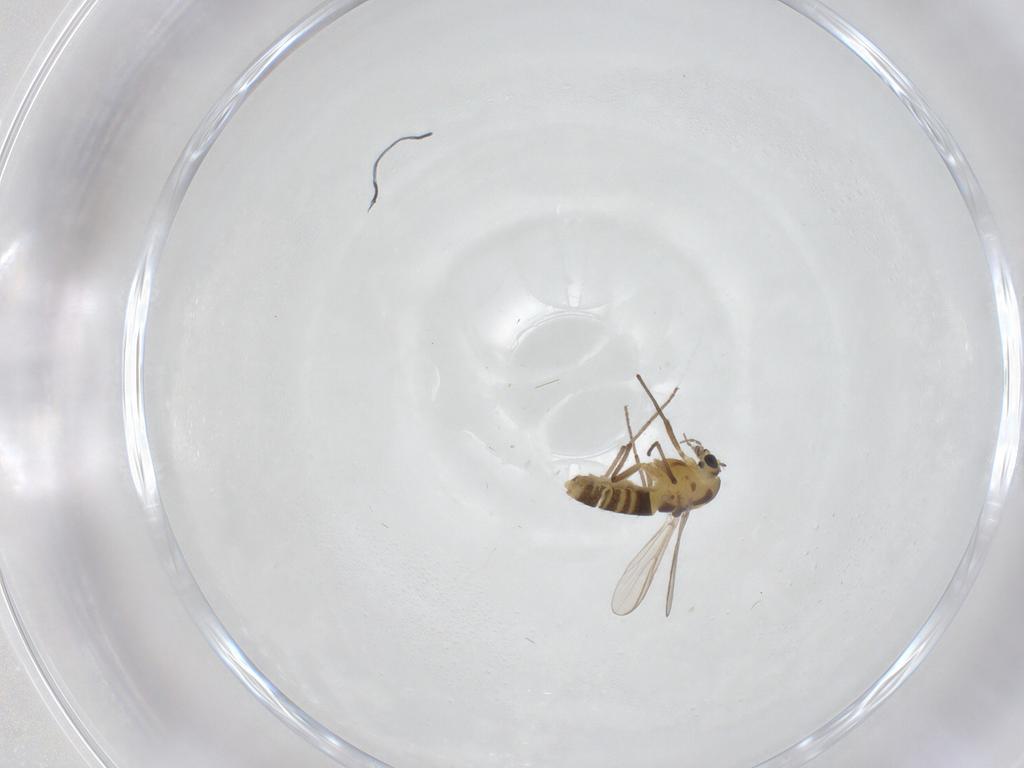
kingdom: Animalia
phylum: Arthropoda
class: Insecta
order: Diptera
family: Chironomidae
